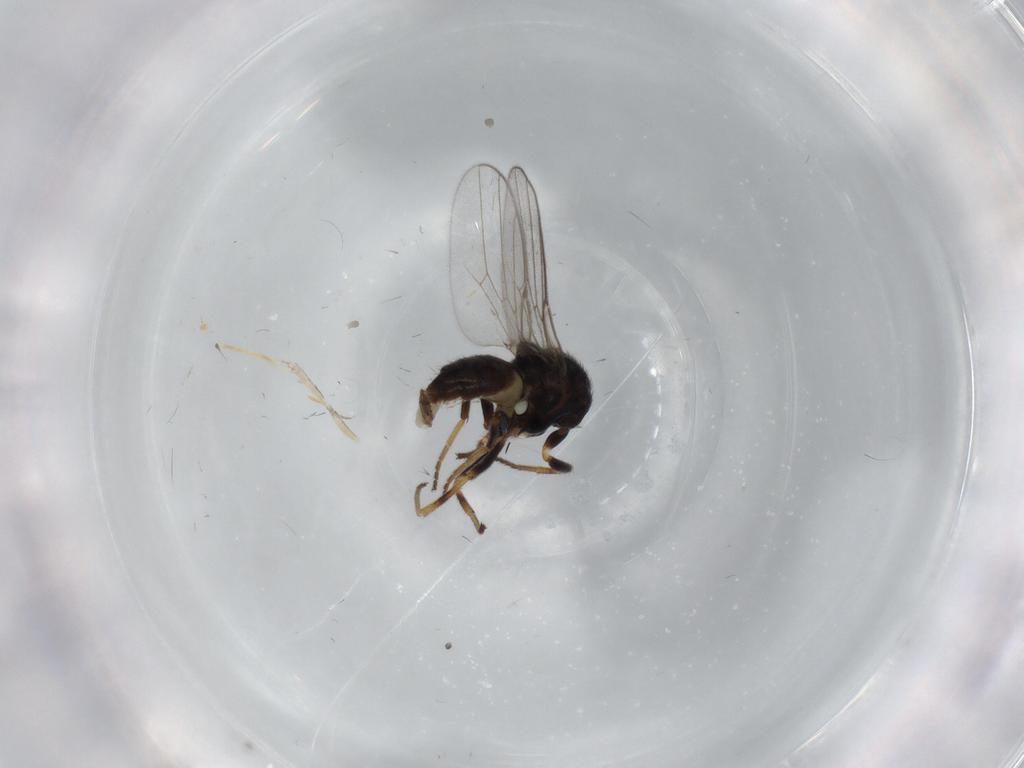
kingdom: Animalia
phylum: Arthropoda
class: Insecta
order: Diptera
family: Chloropidae
